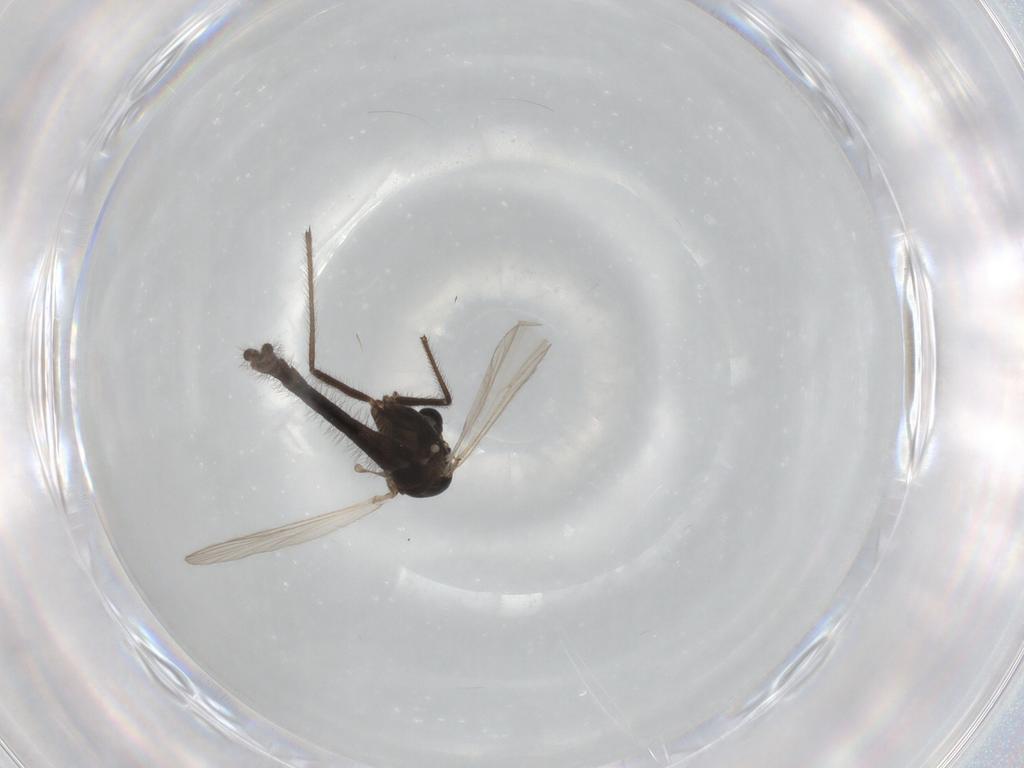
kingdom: Animalia
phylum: Arthropoda
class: Insecta
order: Diptera
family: Chironomidae
